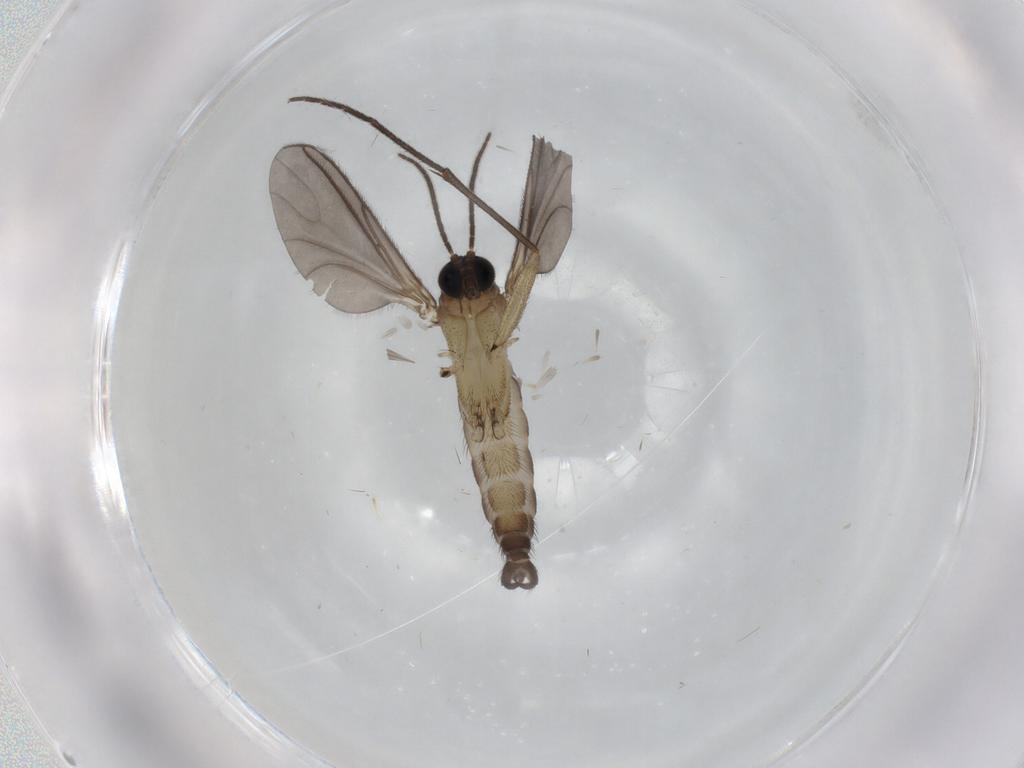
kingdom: Animalia
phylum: Arthropoda
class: Insecta
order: Diptera
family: Sciaridae
